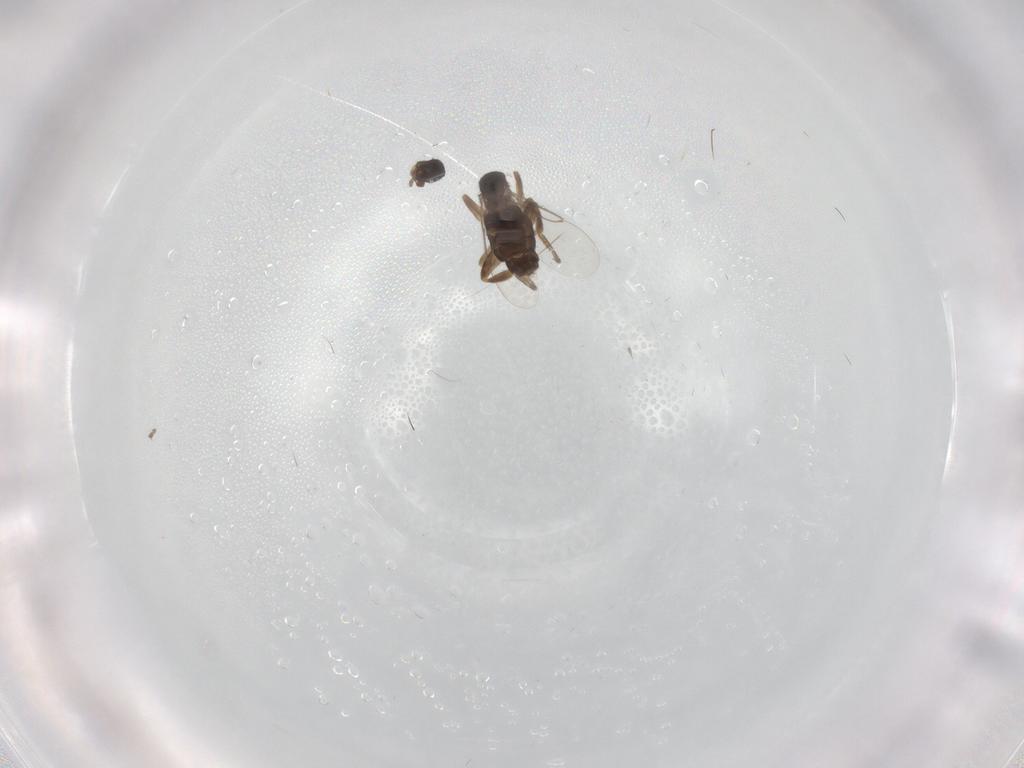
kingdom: Animalia
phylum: Arthropoda
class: Insecta
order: Diptera
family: Phoridae
